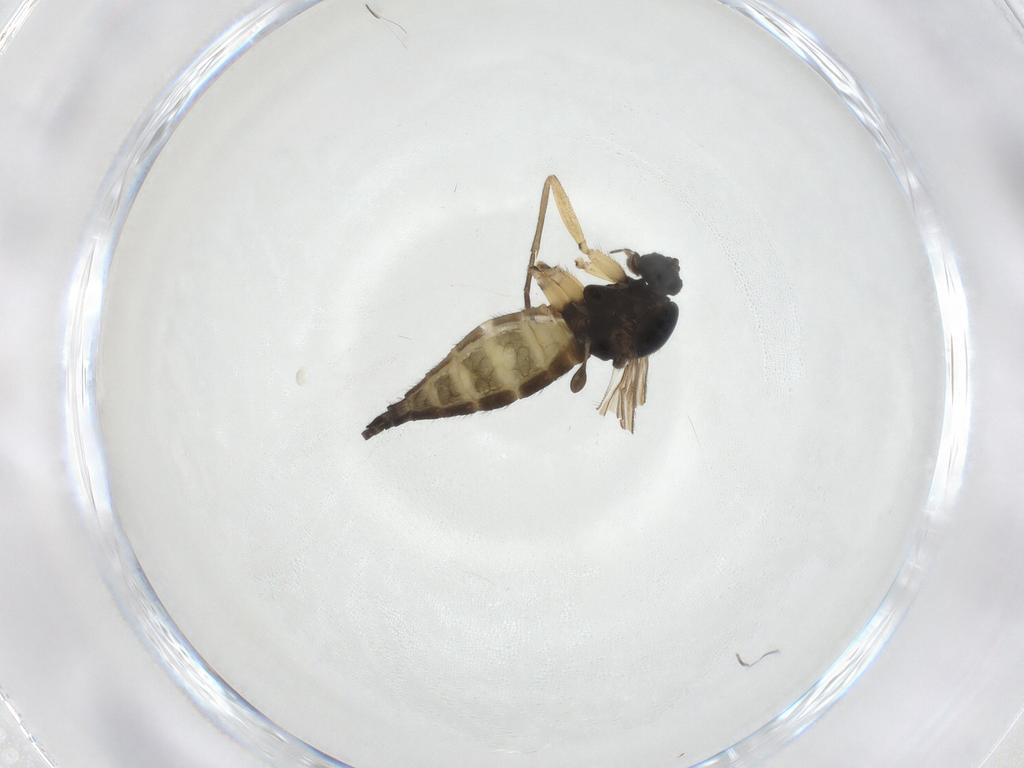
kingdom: Animalia
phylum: Arthropoda
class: Insecta
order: Diptera
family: Sciaridae
